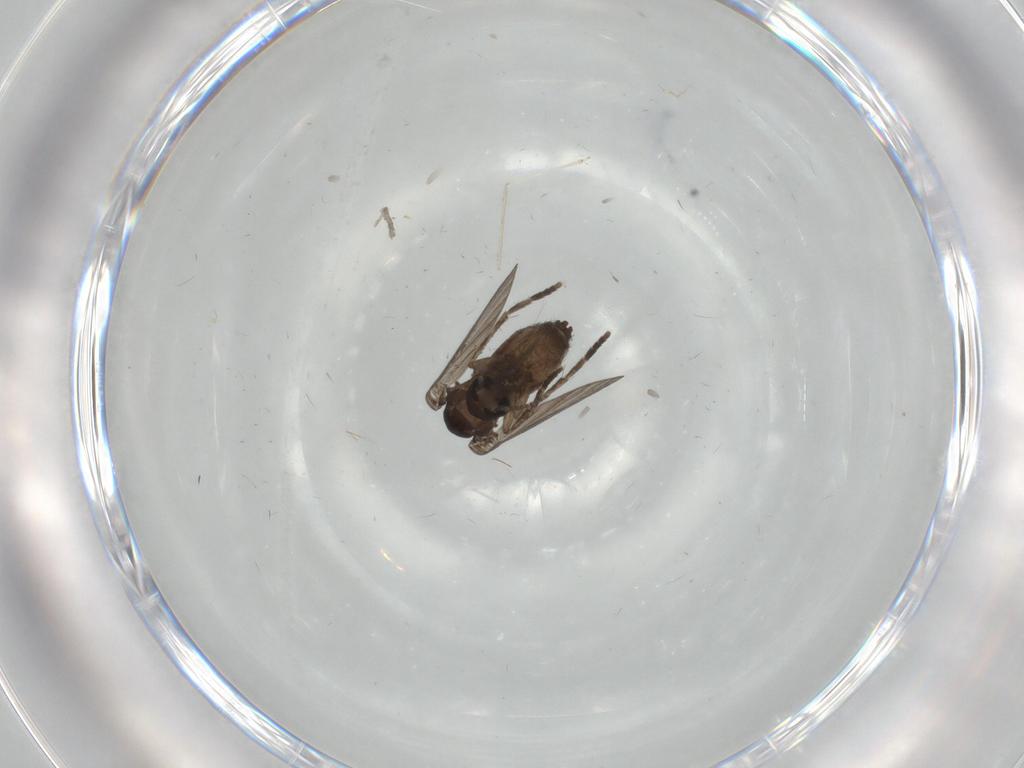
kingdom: Animalia
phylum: Arthropoda
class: Insecta
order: Diptera
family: Psychodidae
